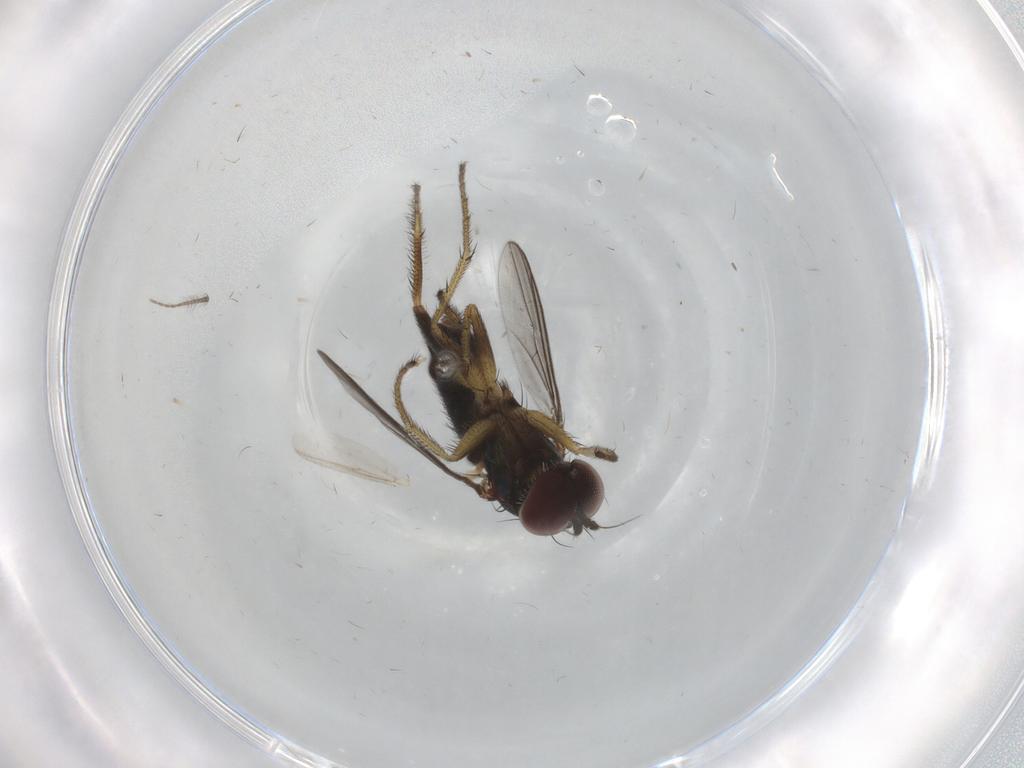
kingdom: Animalia
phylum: Arthropoda
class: Insecta
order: Diptera
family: Dolichopodidae
